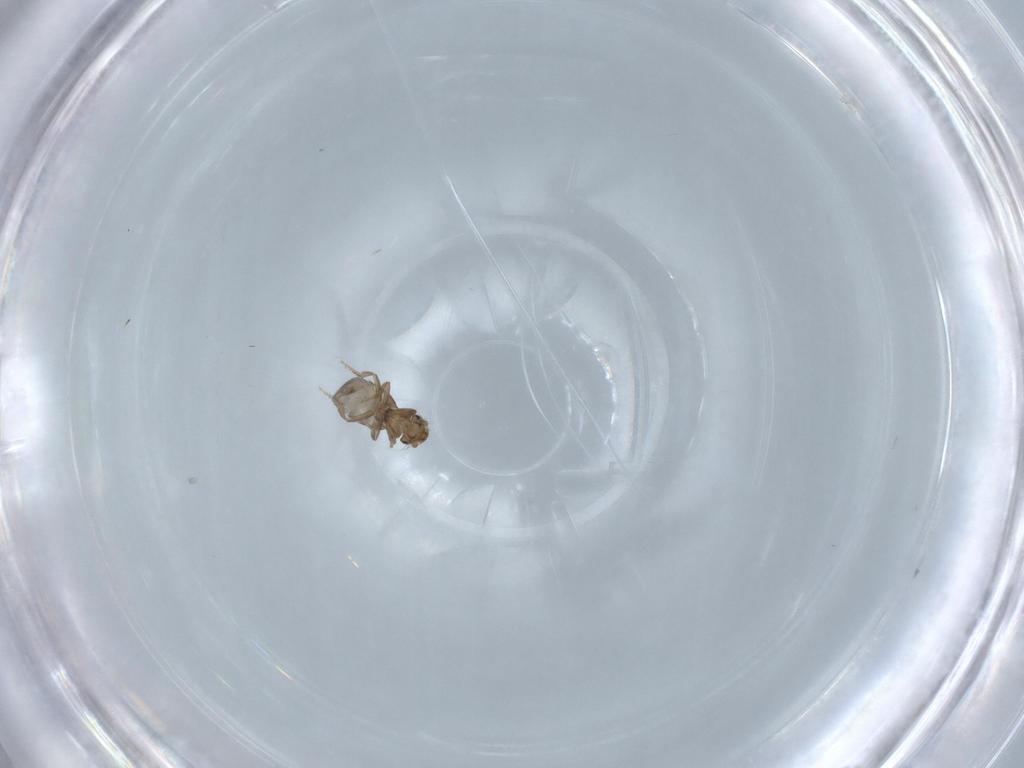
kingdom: Animalia
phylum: Arthropoda
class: Arachnida
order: Araneae
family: Araneidae
